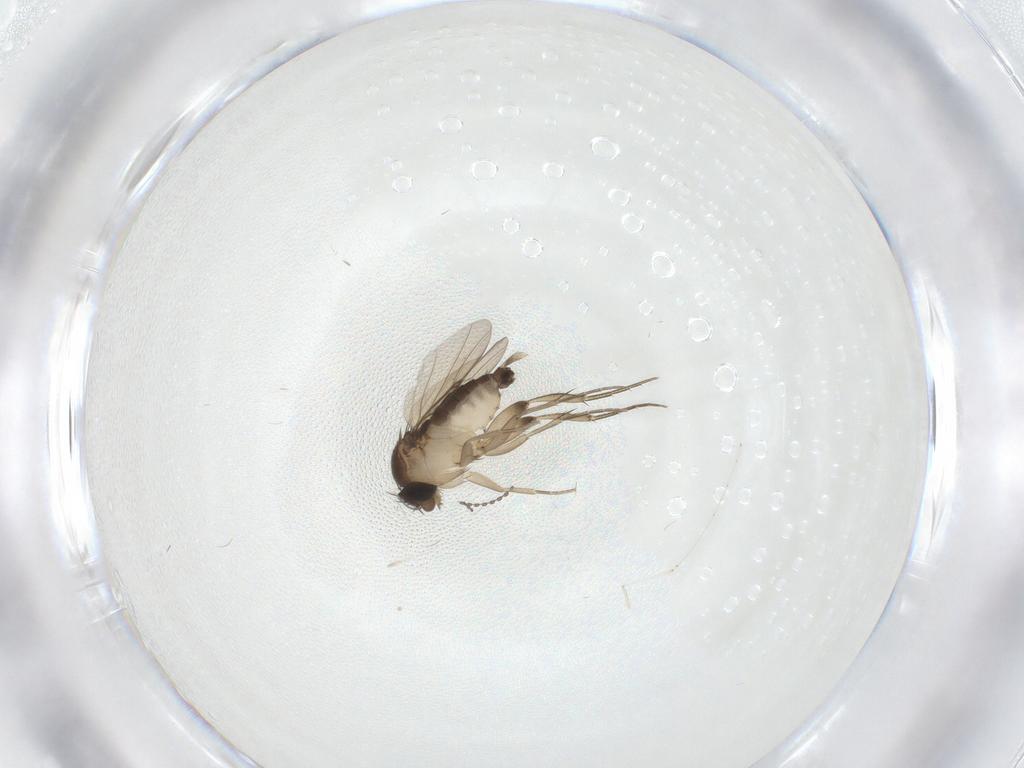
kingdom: Animalia
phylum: Arthropoda
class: Insecta
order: Diptera
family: Phoridae
